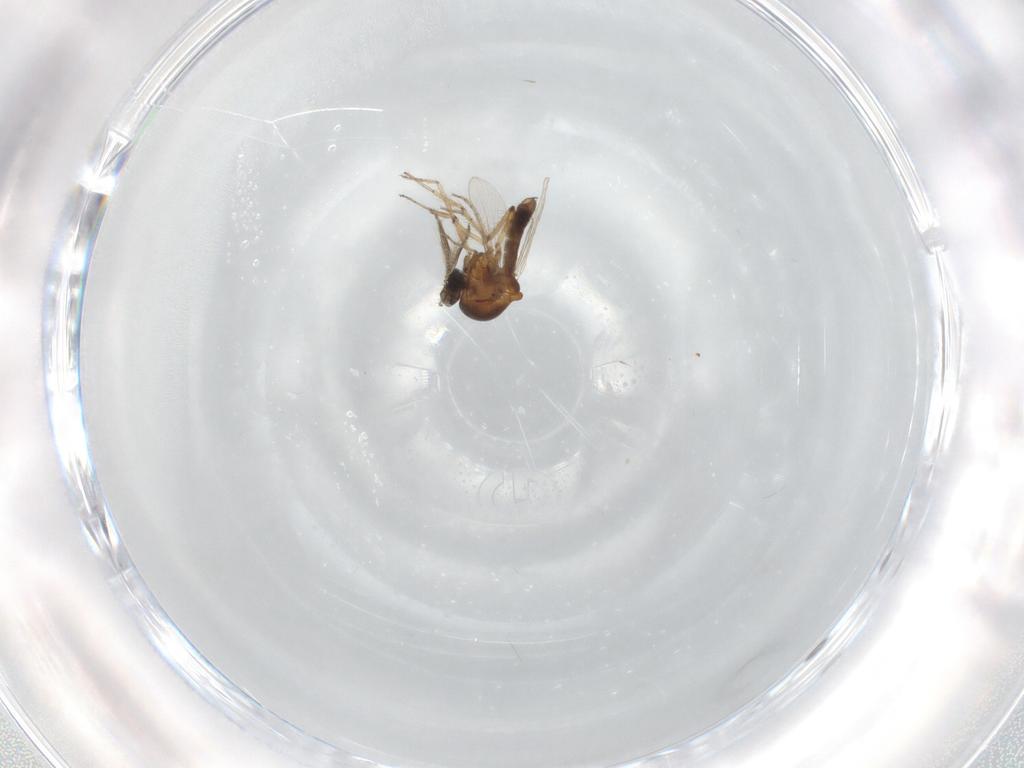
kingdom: Animalia
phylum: Arthropoda
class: Insecta
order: Diptera
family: Ceratopogonidae
